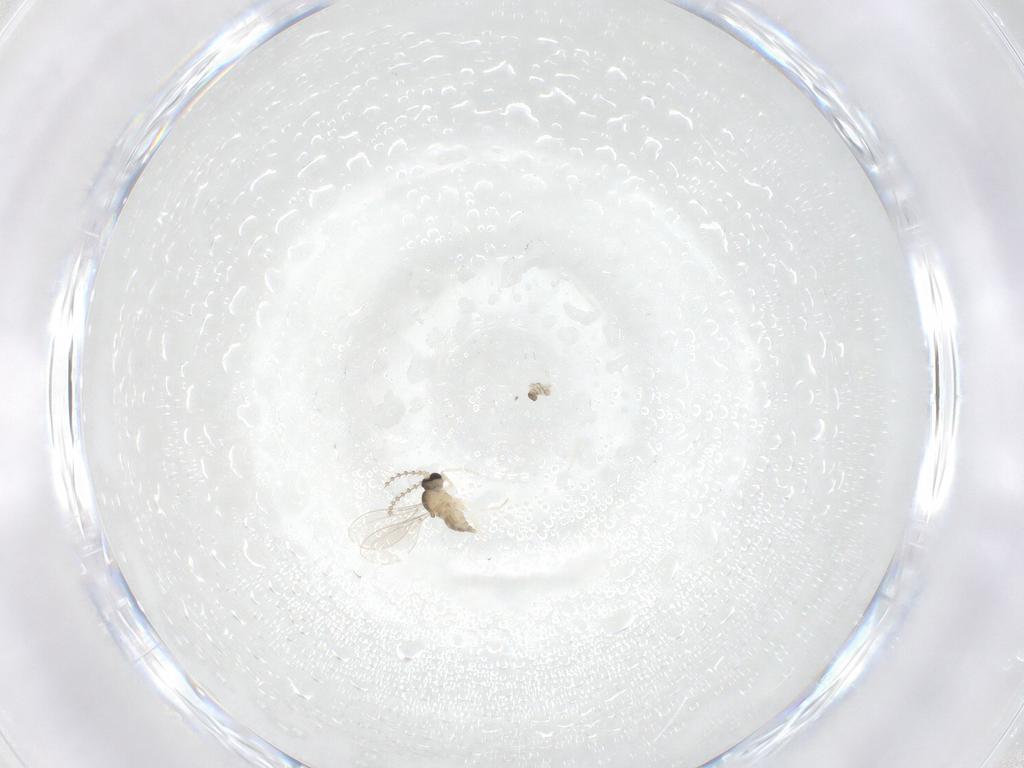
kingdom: Animalia
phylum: Arthropoda
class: Insecta
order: Diptera
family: Cecidomyiidae
